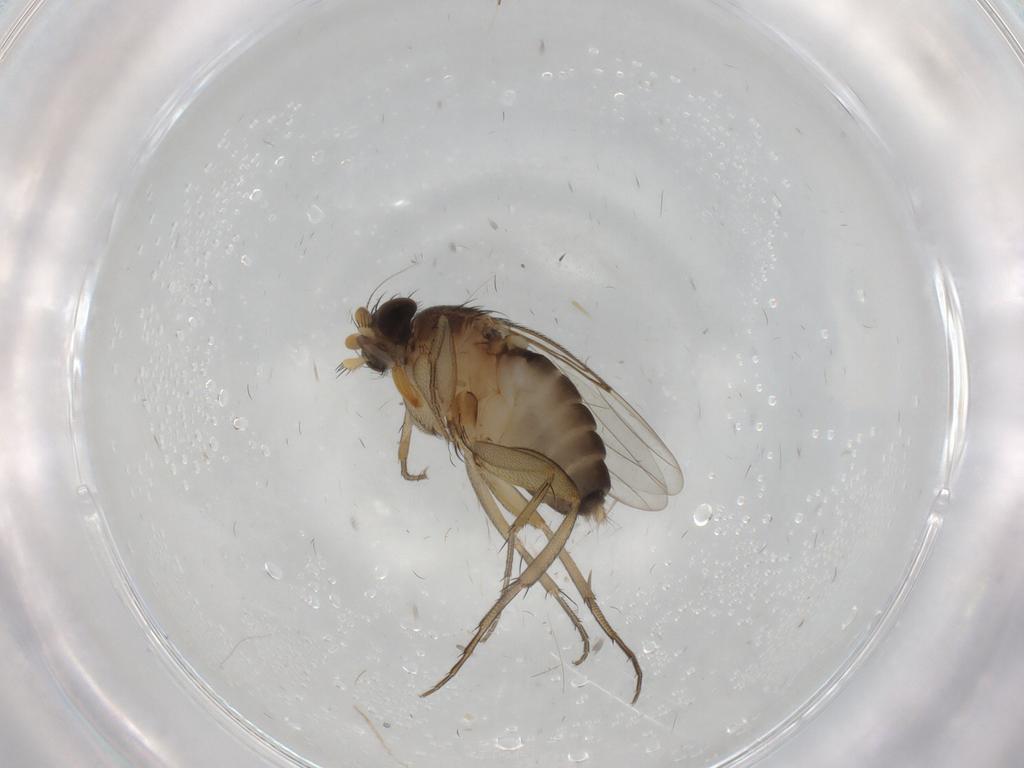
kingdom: Animalia
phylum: Arthropoda
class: Insecta
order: Diptera
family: Phoridae
